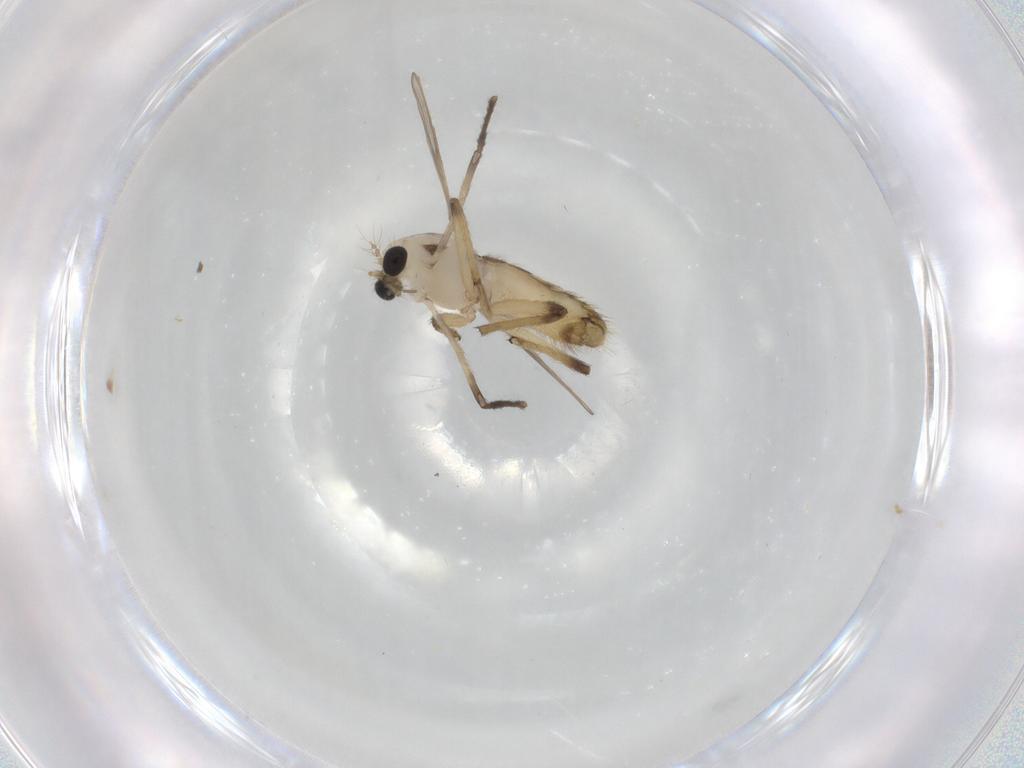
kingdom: Animalia
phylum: Arthropoda
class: Insecta
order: Diptera
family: Chironomidae
